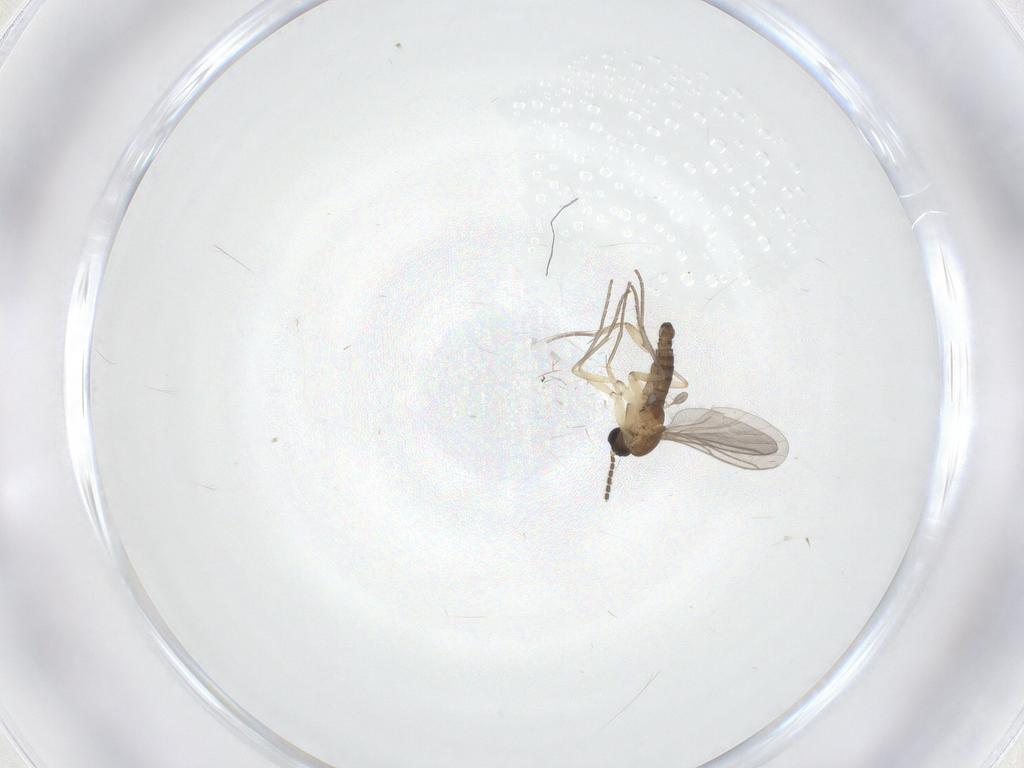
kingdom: Animalia
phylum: Arthropoda
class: Insecta
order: Diptera
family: Sciaridae
